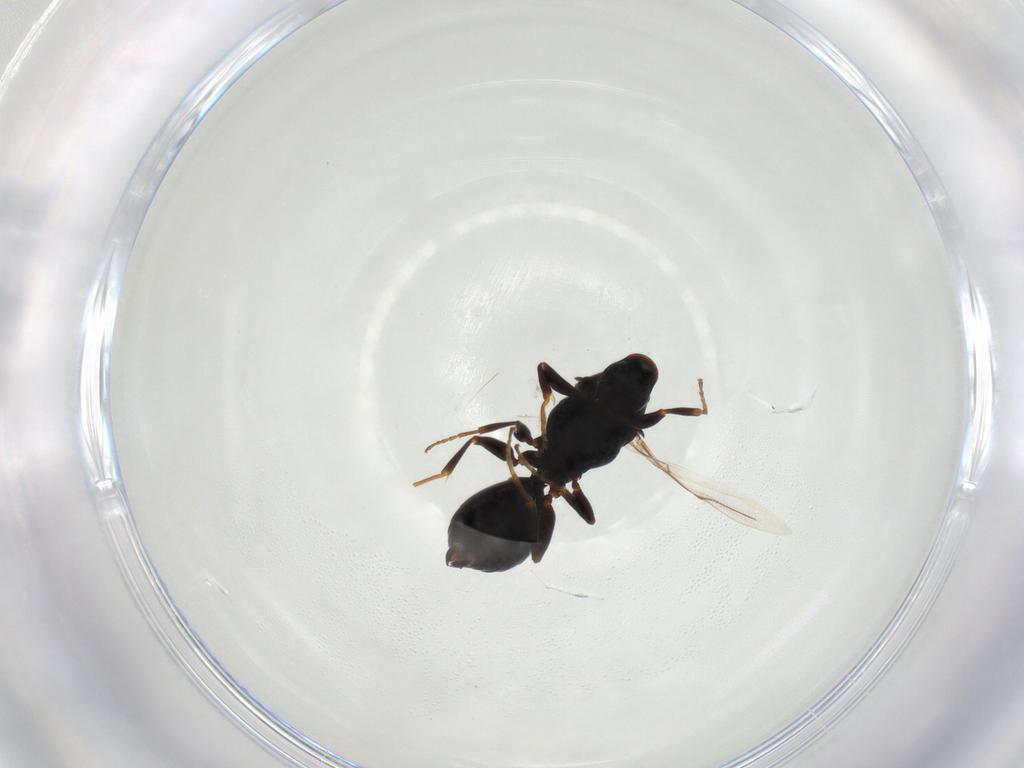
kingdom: Animalia
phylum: Arthropoda
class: Insecta
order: Hymenoptera
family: Bethylidae
